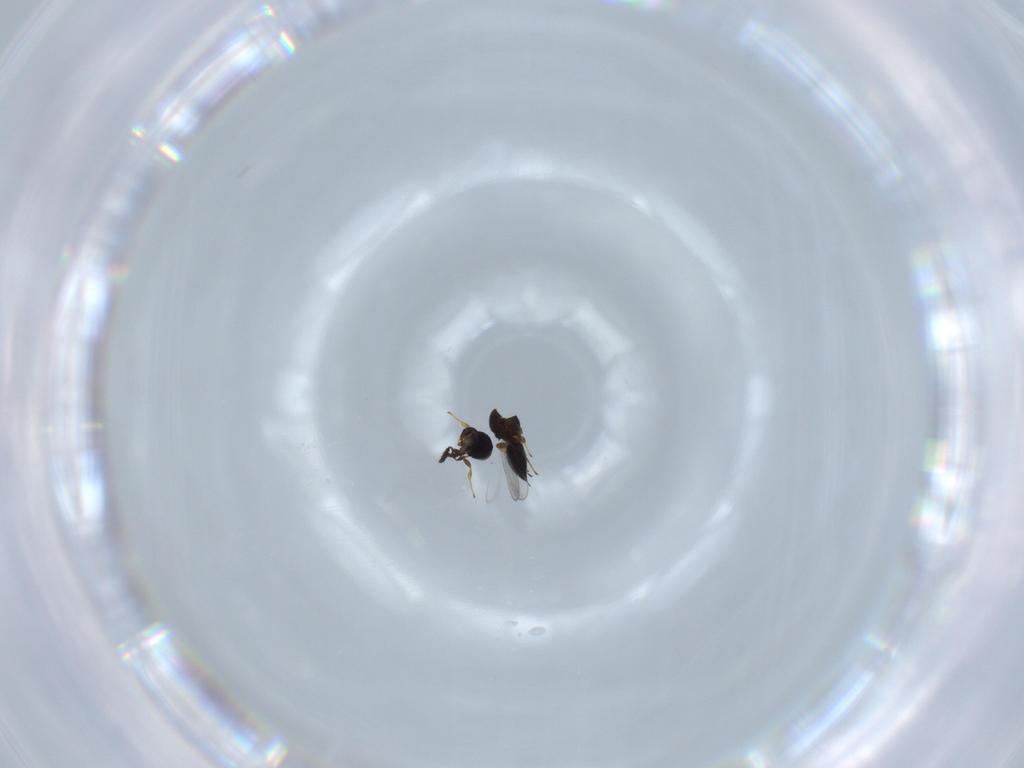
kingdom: Animalia
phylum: Arthropoda
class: Insecta
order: Hymenoptera
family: Platygastridae
